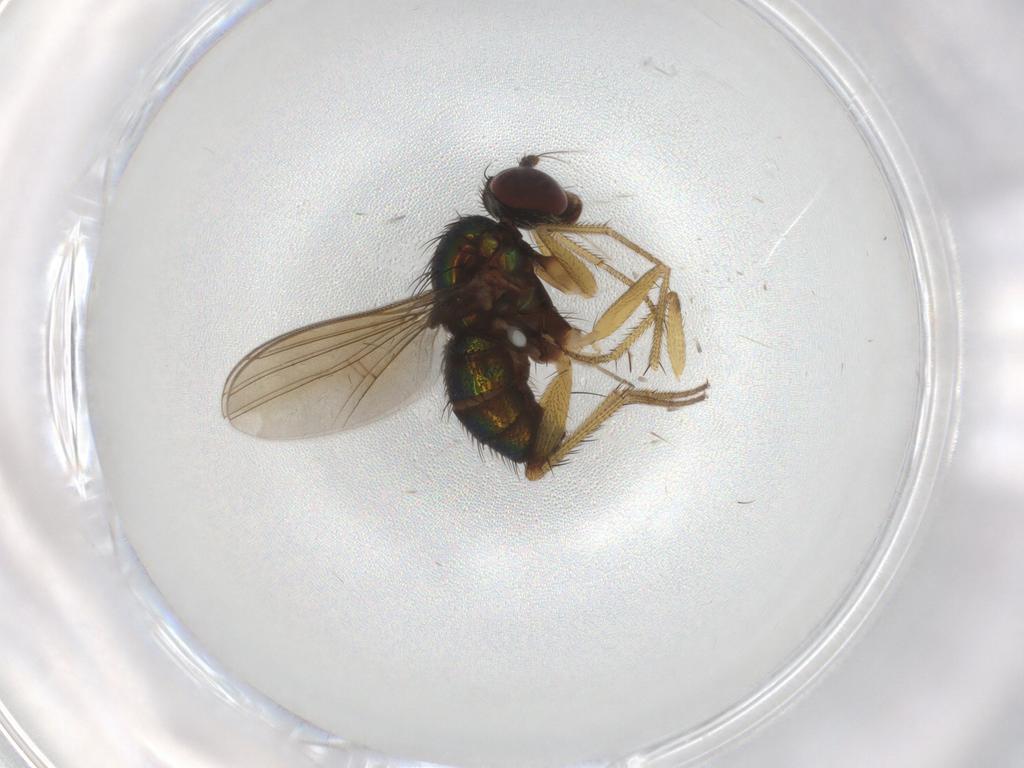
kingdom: Animalia
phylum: Arthropoda
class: Insecta
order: Diptera
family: Dolichopodidae
